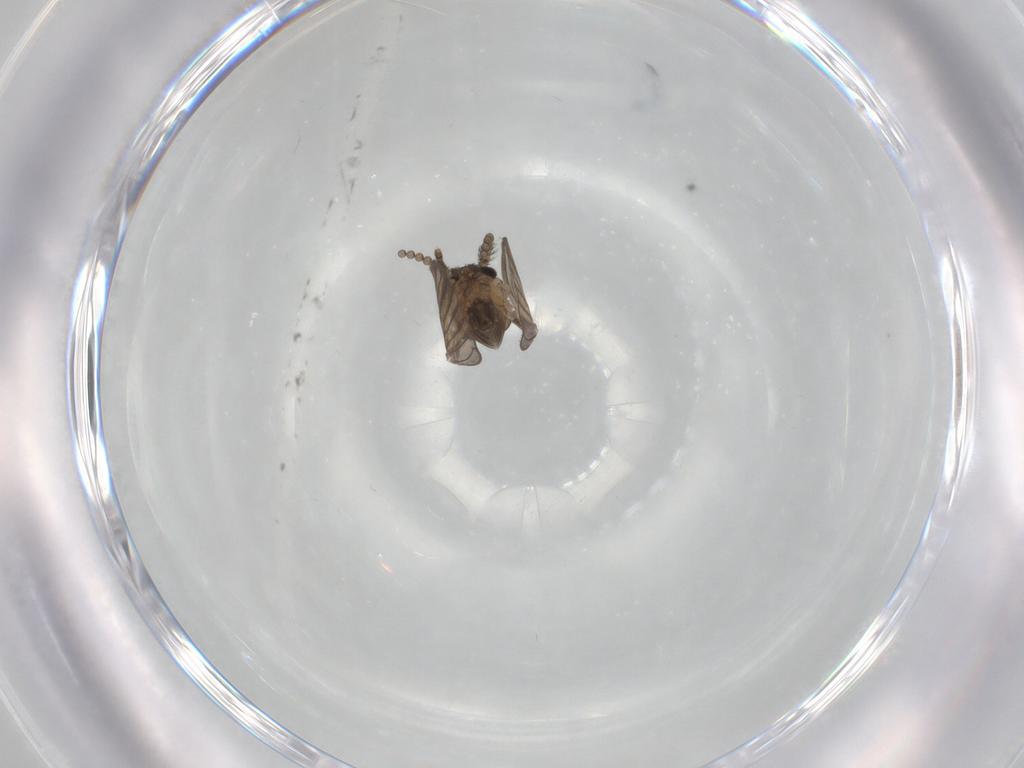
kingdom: Animalia
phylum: Arthropoda
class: Insecta
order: Diptera
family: Psychodidae
